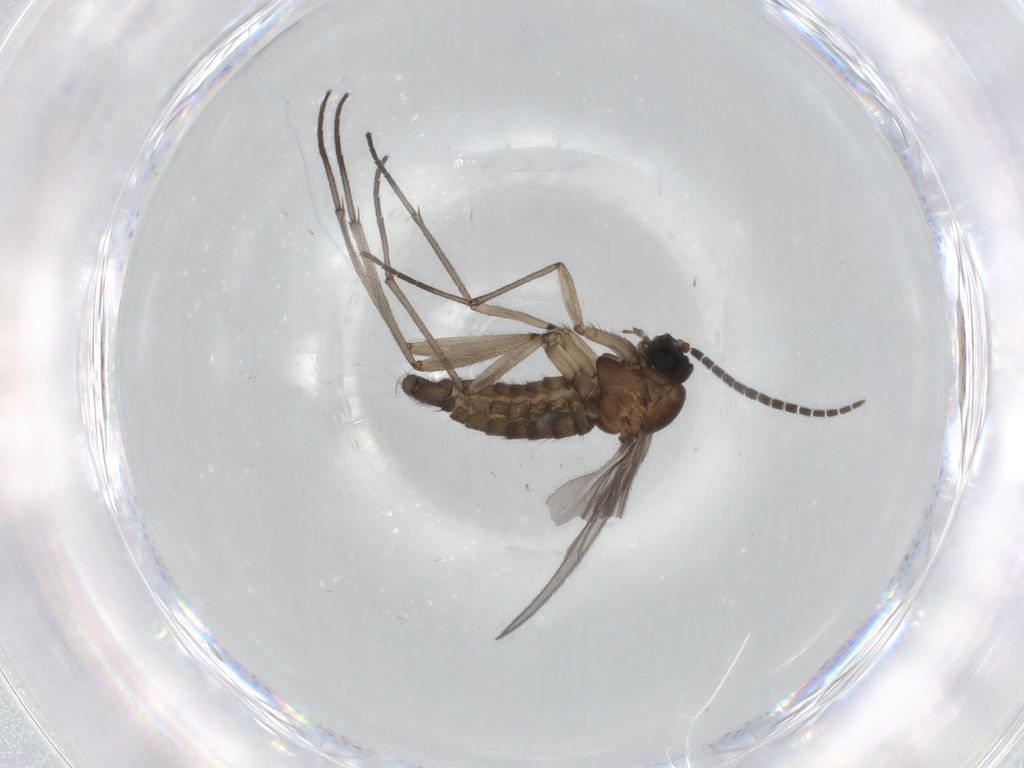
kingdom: Animalia
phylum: Arthropoda
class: Insecta
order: Diptera
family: Sciaridae
